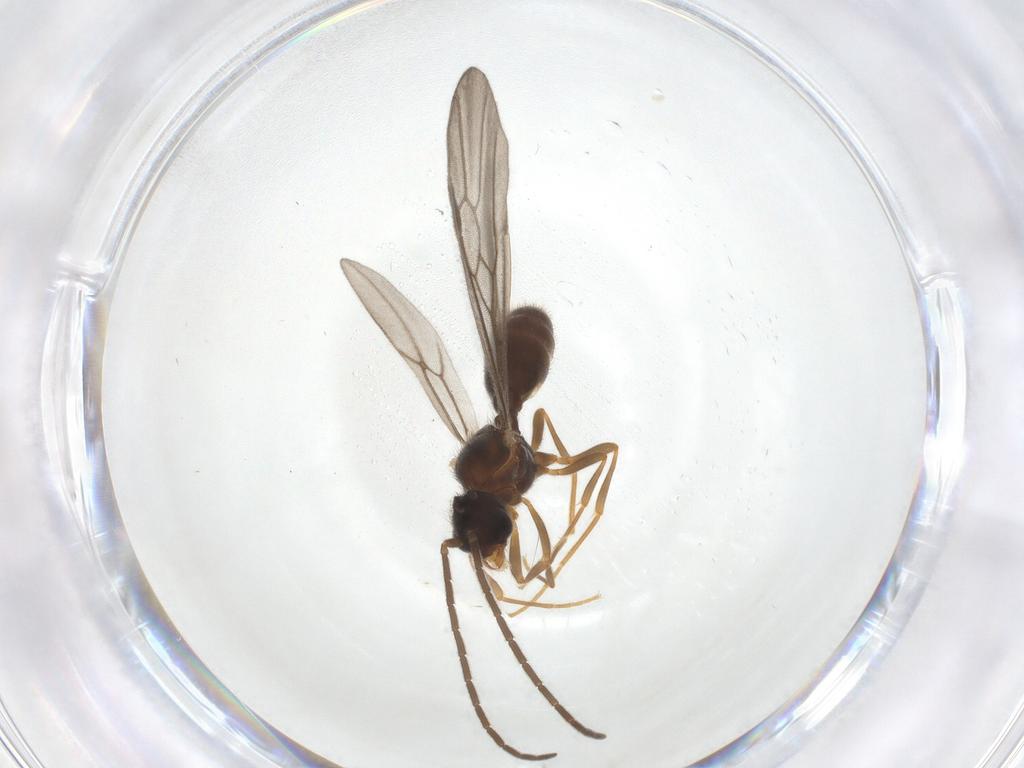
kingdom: Animalia
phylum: Arthropoda
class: Insecta
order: Hymenoptera
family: Formicidae
